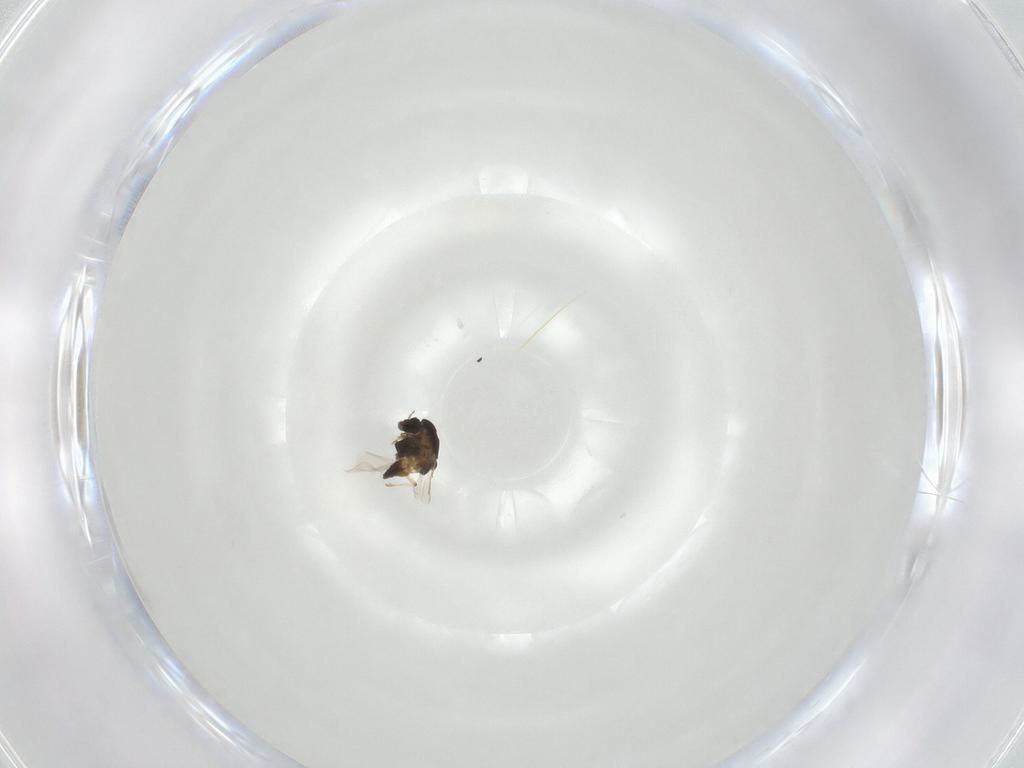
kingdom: Animalia
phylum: Arthropoda
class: Insecta
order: Diptera
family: Chironomidae
